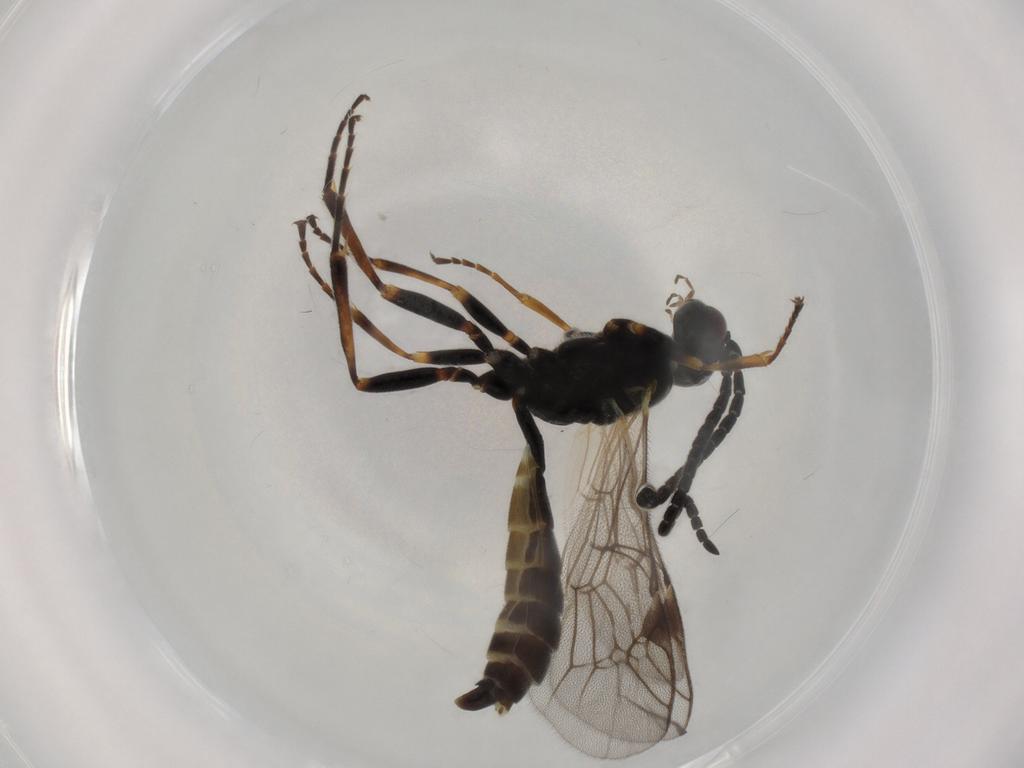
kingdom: Animalia
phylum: Arthropoda
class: Insecta
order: Hymenoptera
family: Ichneumonidae
